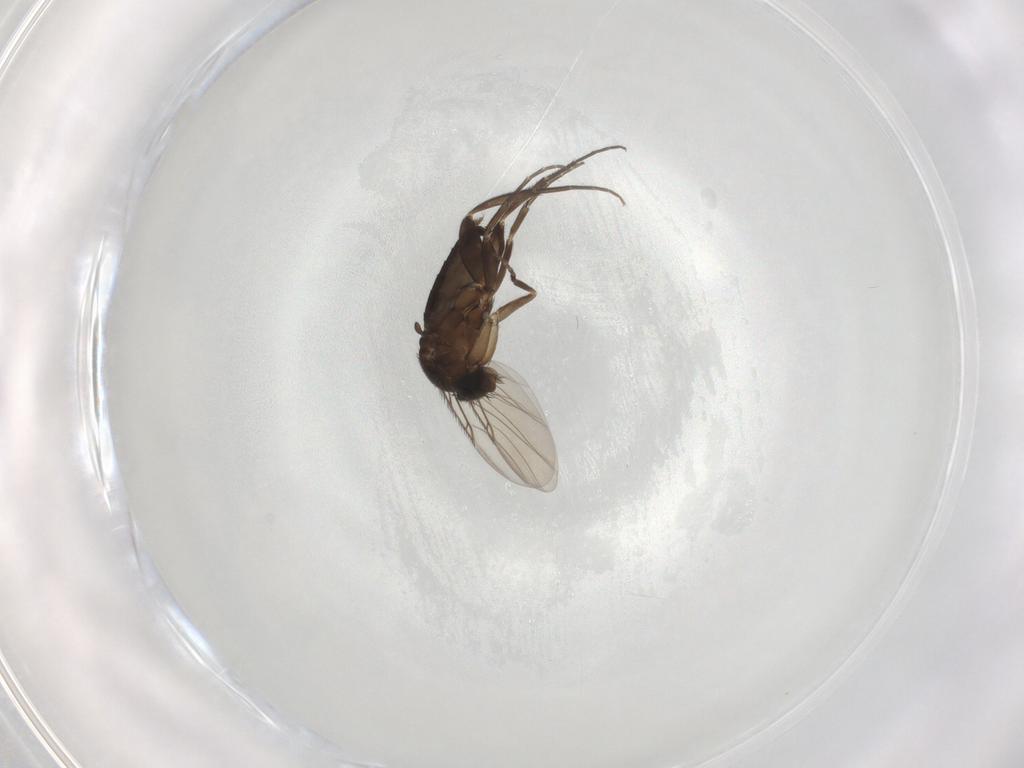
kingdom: Animalia
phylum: Arthropoda
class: Insecta
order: Diptera
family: Phoridae
